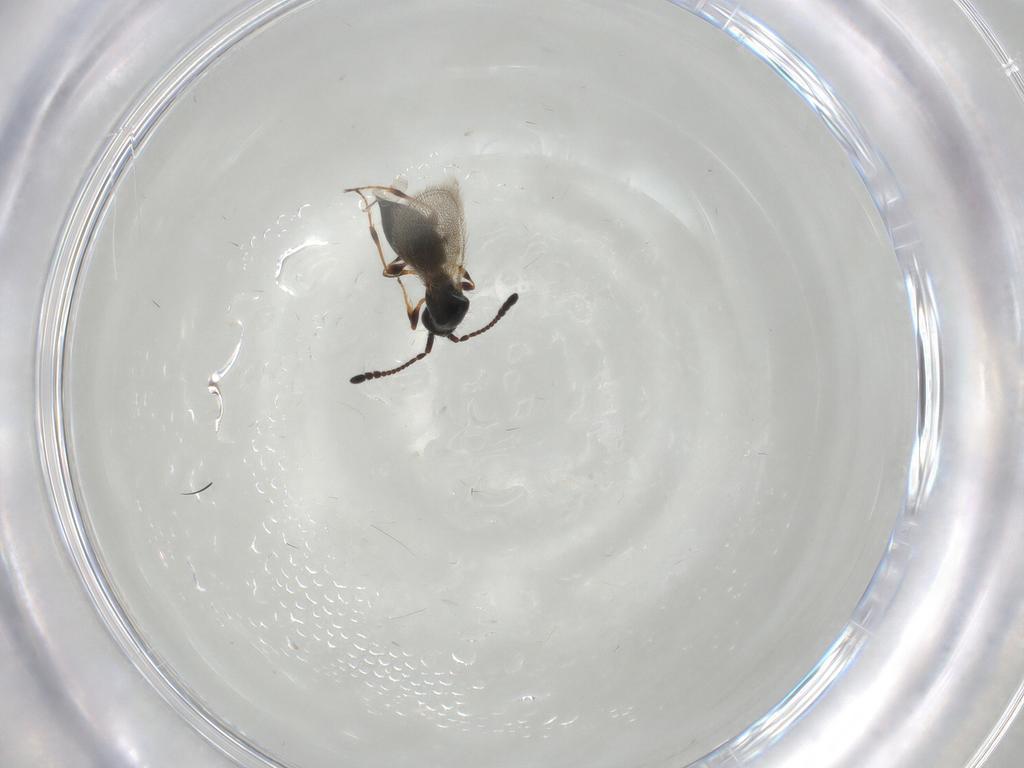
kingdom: Animalia
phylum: Arthropoda
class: Insecta
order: Hymenoptera
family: Diapriidae
